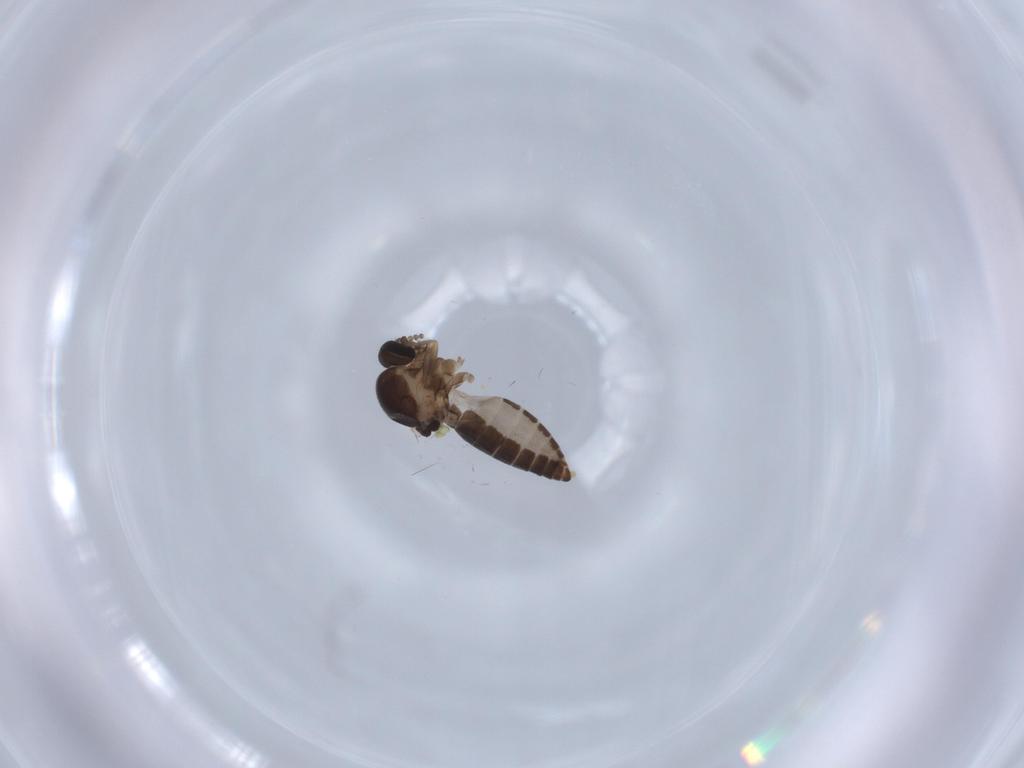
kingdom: Animalia
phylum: Arthropoda
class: Insecta
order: Diptera
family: Ceratopogonidae
